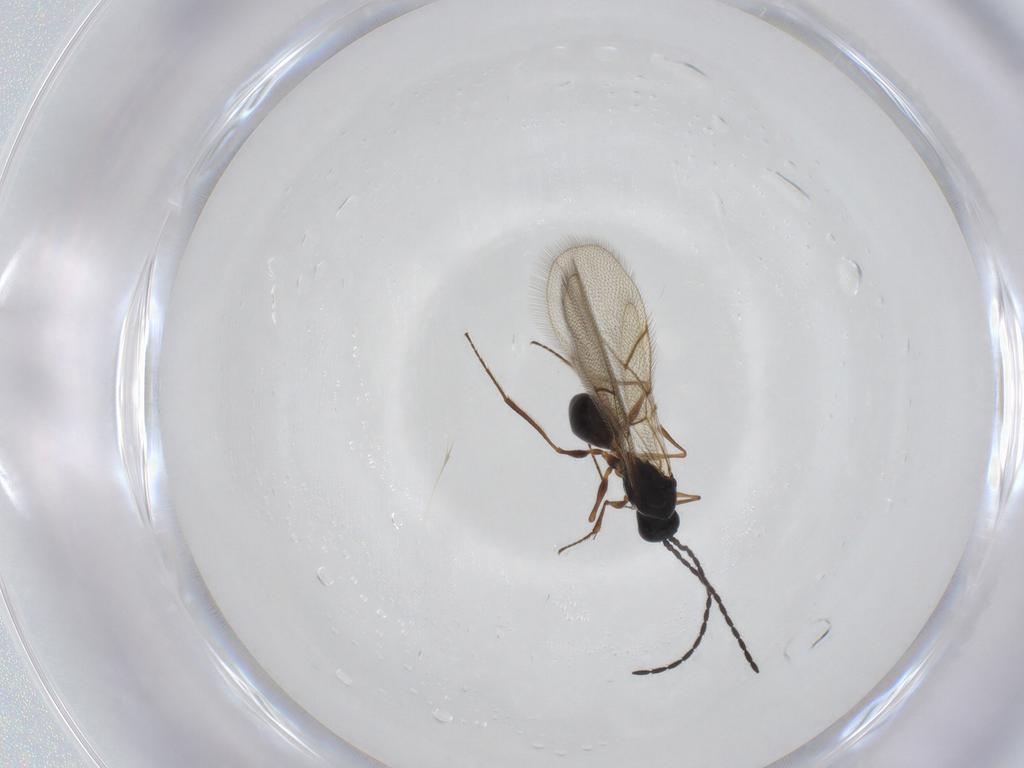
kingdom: Animalia
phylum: Arthropoda
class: Insecta
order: Hymenoptera
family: Figitidae
